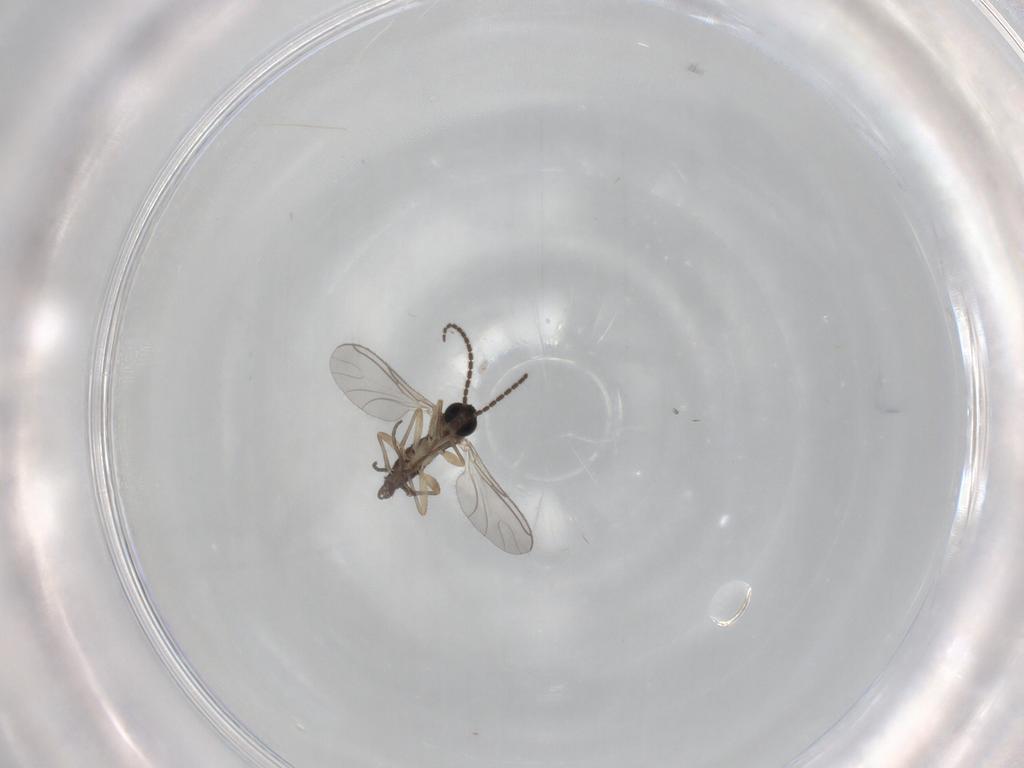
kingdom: Animalia
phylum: Arthropoda
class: Insecta
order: Diptera
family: Sciaridae
